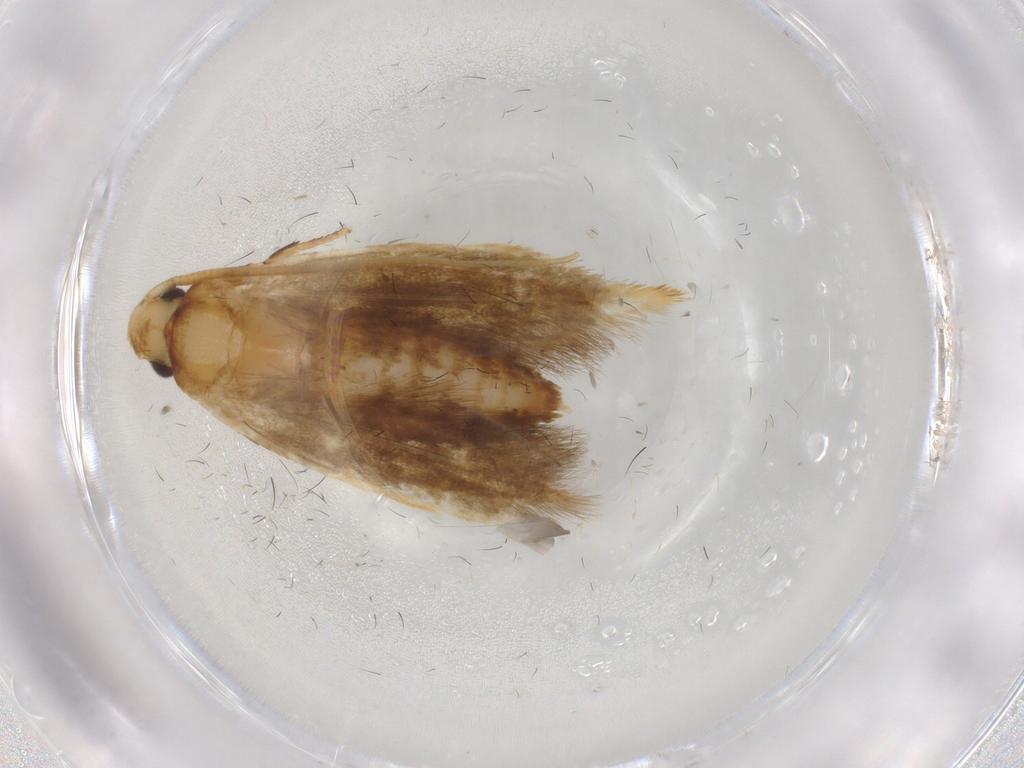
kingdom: Animalia
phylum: Arthropoda
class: Insecta
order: Lepidoptera
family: Tineidae
